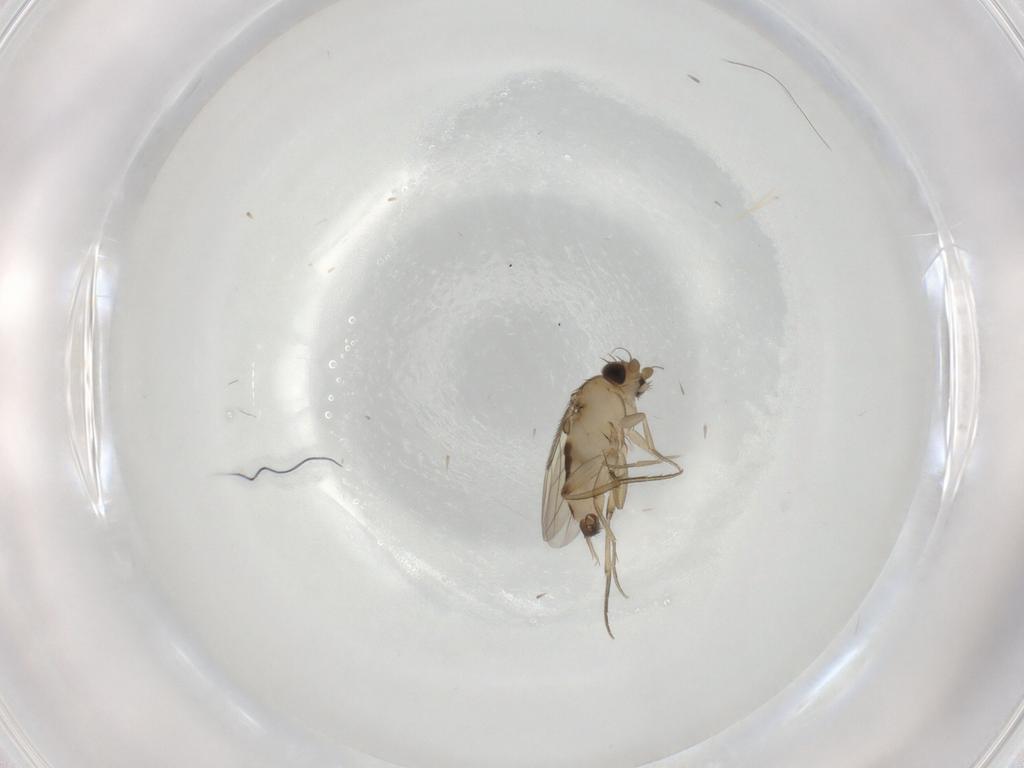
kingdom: Animalia
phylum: Arthropoda
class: Insecta
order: Diptera
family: Phoridae
